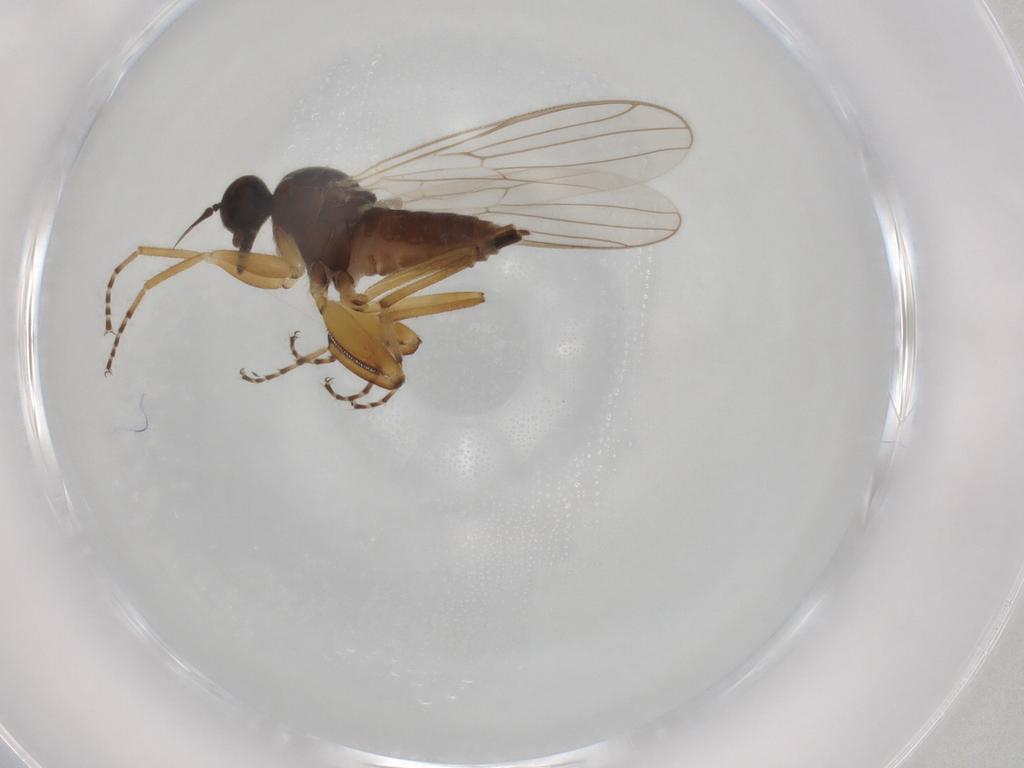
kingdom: Animalia
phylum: Arthropoda
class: Insecta
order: Diptera
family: Hybotidae
